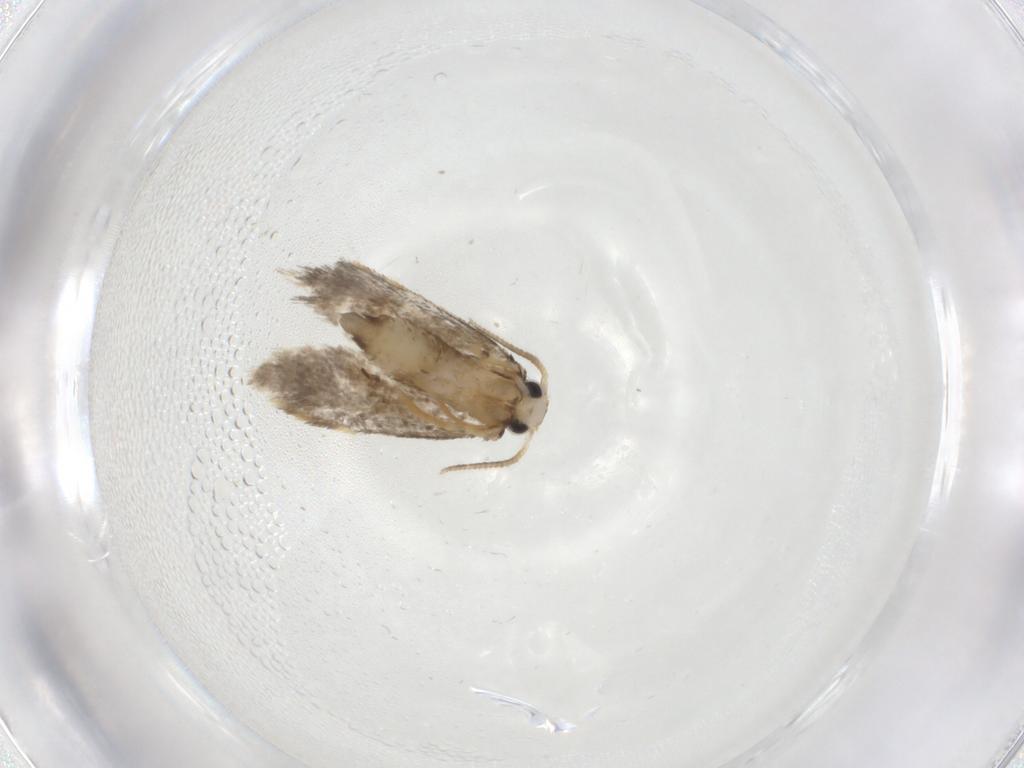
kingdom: Animalia
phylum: Arthropoda
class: Insecta
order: Lepidoptera
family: Psychidae
